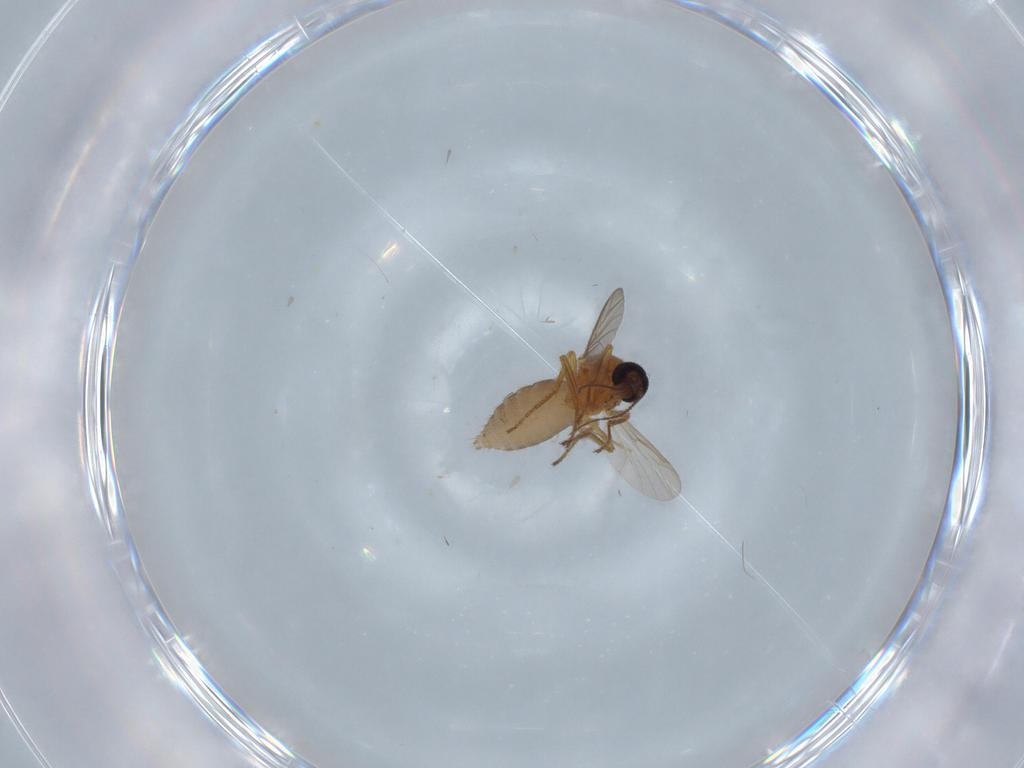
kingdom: Animalia
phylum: Arthropoda
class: Insecta
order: Diptera
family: Ceratopogonidae
